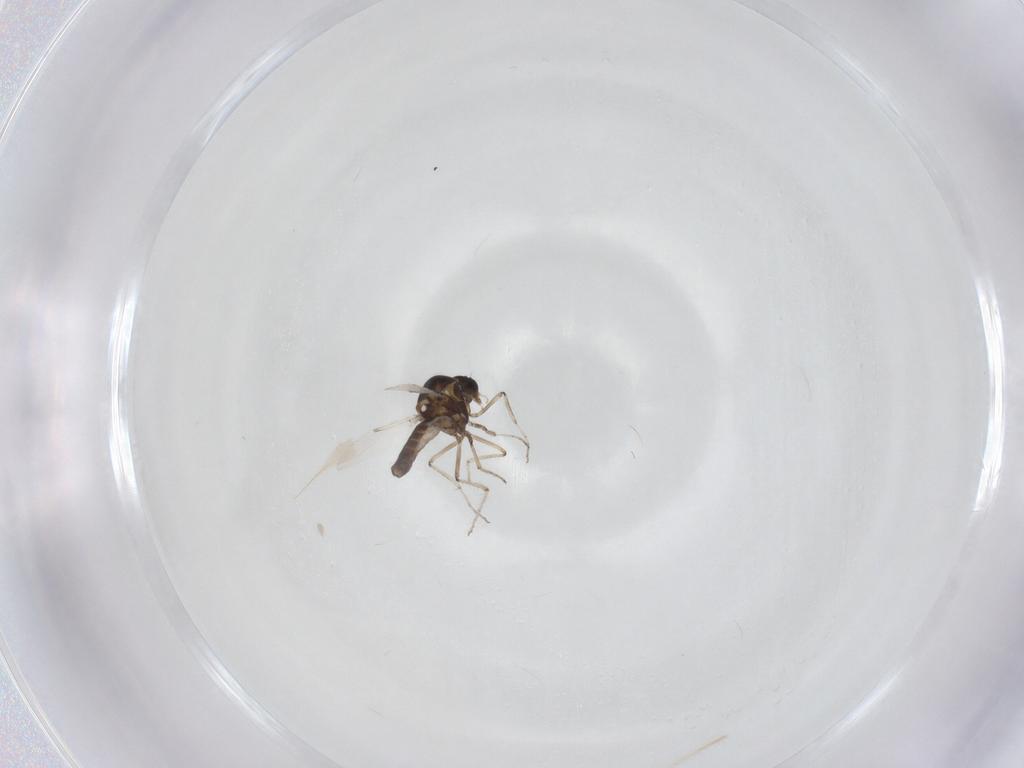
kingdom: Animalia
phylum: Arthropoda
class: Insecta
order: Diptera
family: Ceratopogonidae
